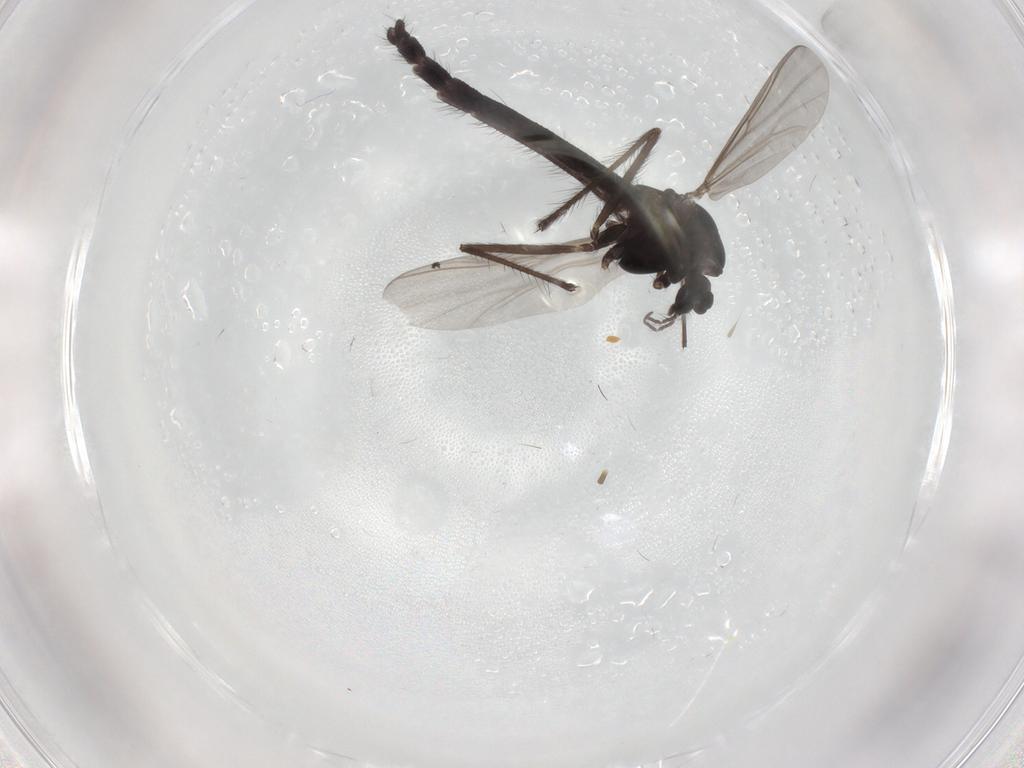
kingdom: Animalia
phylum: Arthropoda
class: Insecta
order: Diptera
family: Chironomidae
